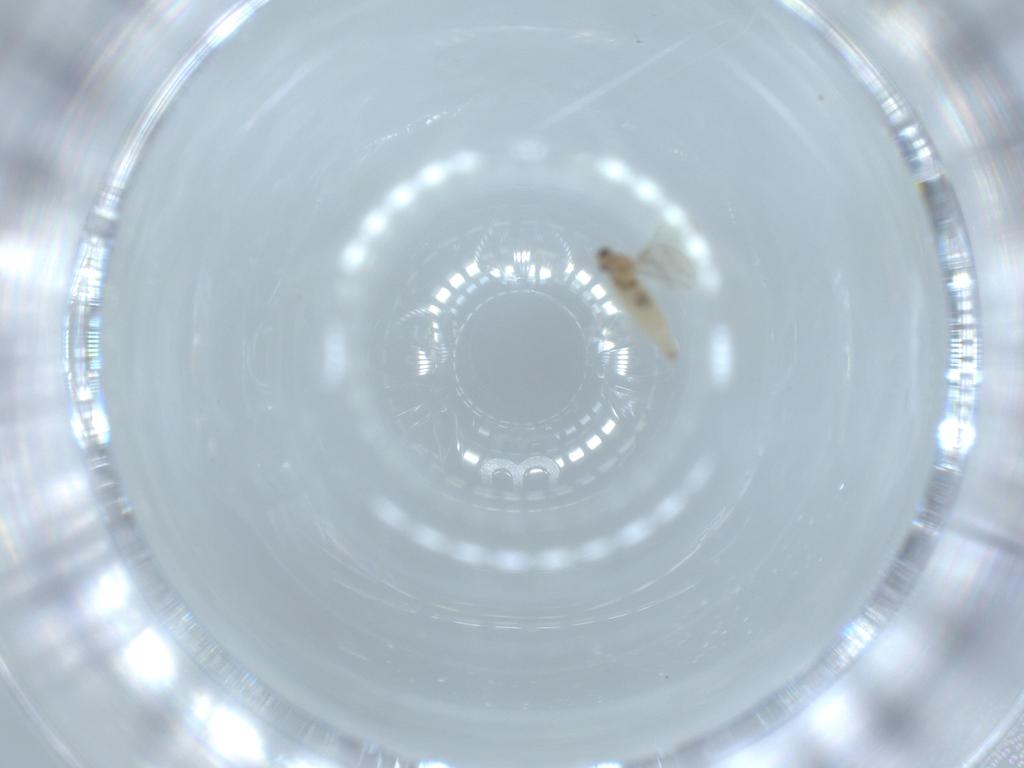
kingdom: Animalia
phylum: Arthropoda
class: Insecta
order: Diptera
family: Cecidomyiidae
